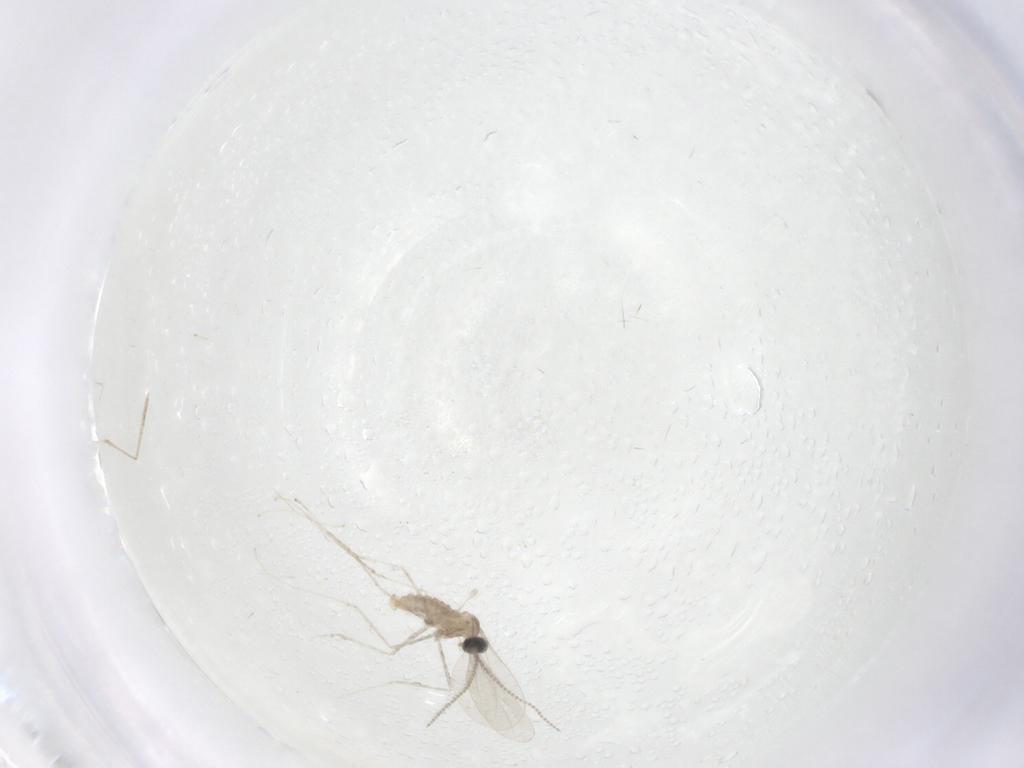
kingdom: Animalia
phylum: Arthropoda
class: Insecta
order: Diptera
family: Cecidomyiidae
